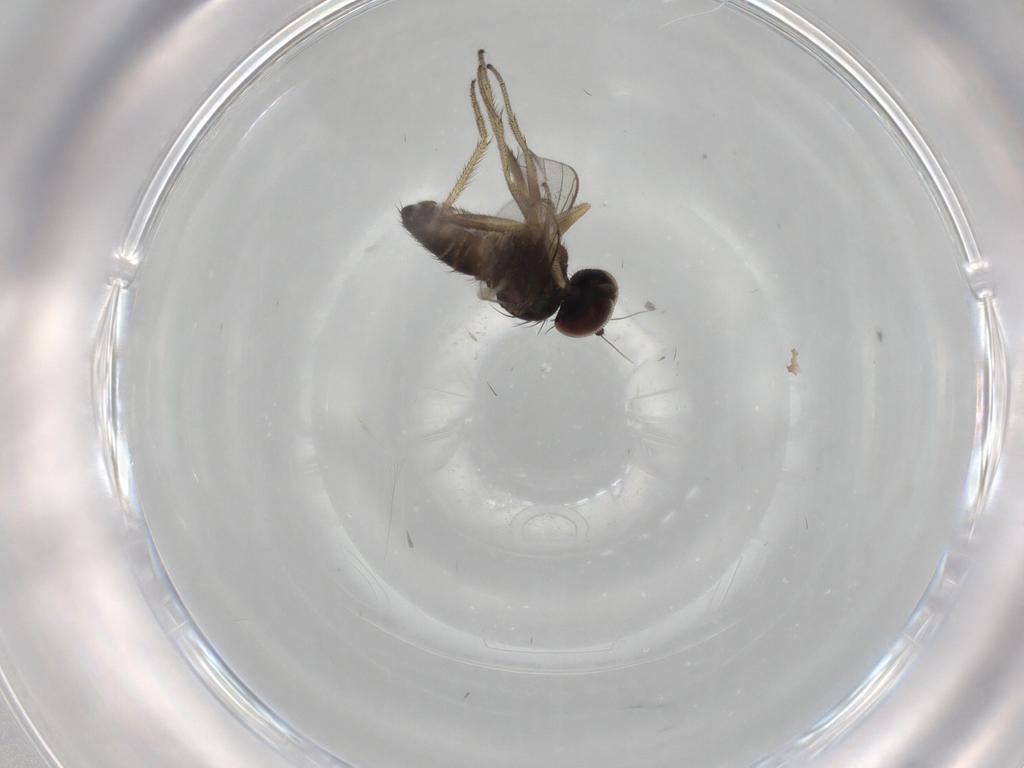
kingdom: Animalia
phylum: Arthropoda
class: Insecta
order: Diptera
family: Dolichopodidae
